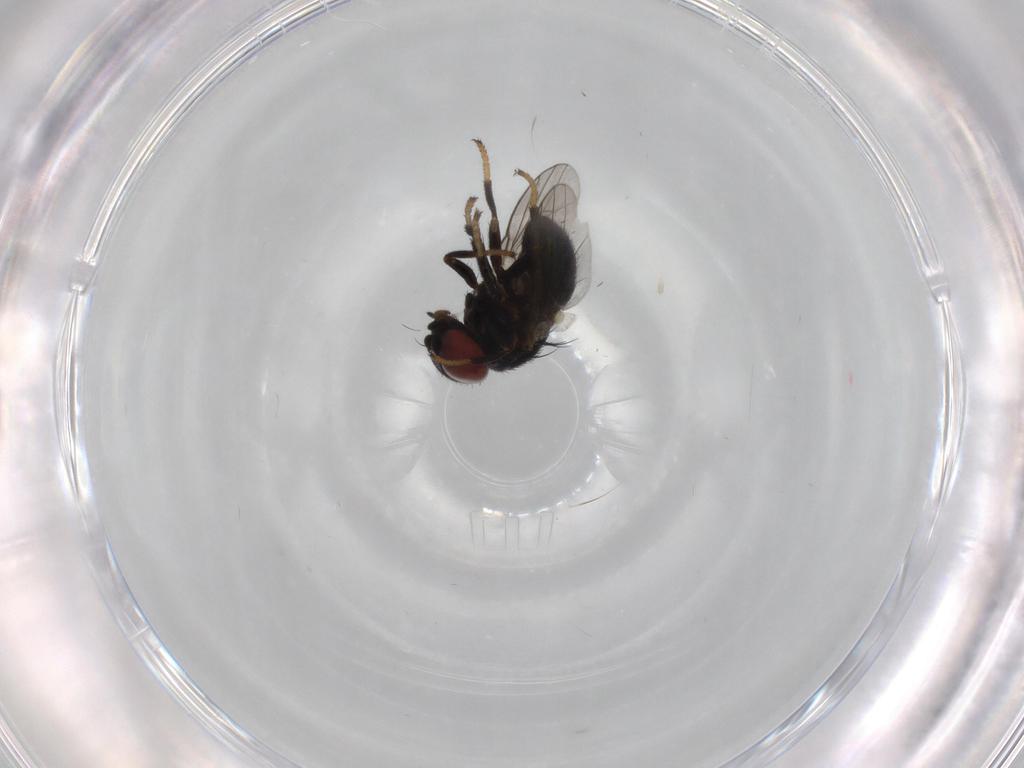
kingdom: Animalia
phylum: Arthropoda
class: Insecta
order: Diptera
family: Chamaemyiidae
